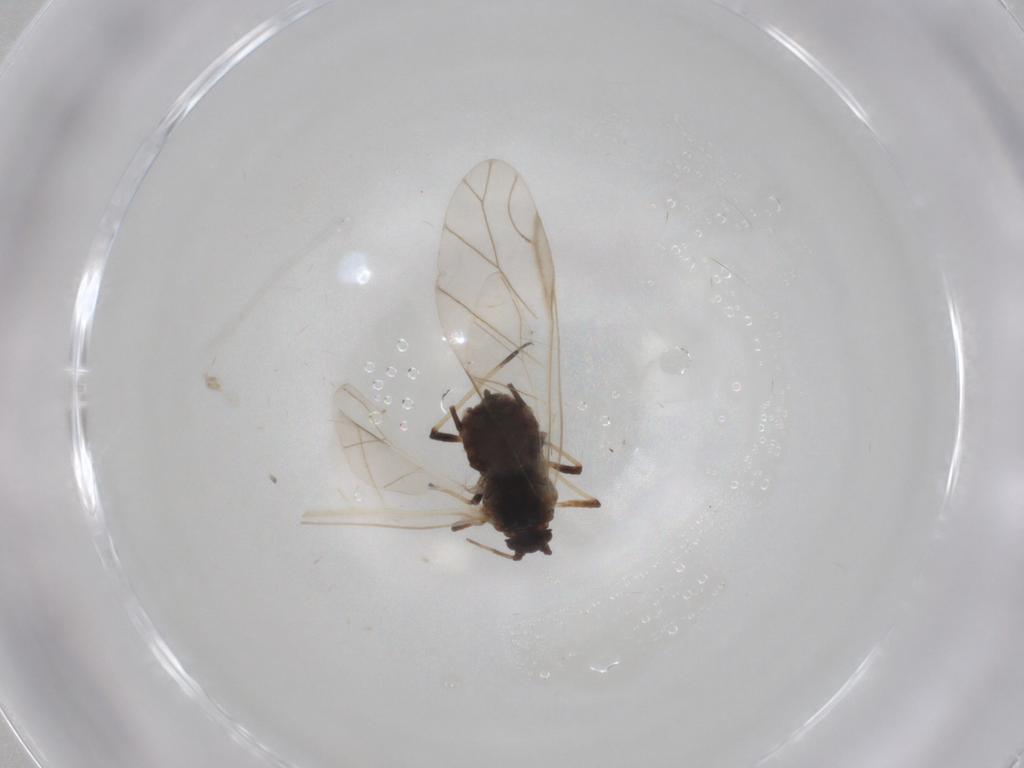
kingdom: Animalia
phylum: Arthropoda
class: Insecta
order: Hemiptera
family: Aphididae
